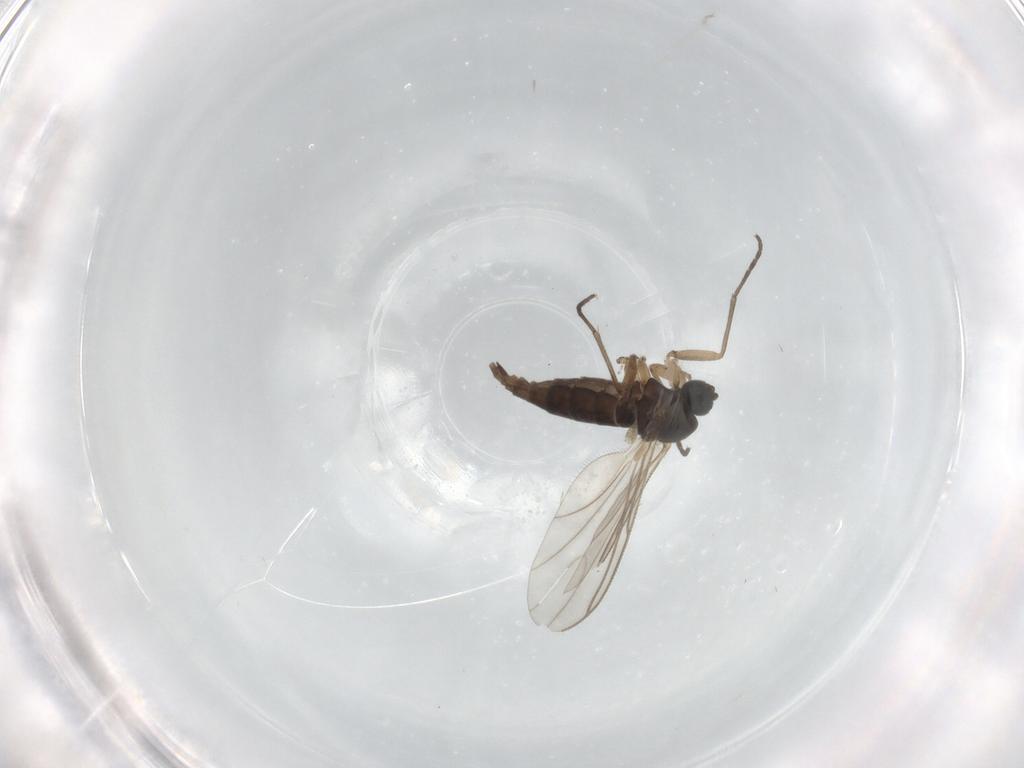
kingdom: Animalia
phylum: Arthropoda
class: Insecta
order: Diptera
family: Sciaridae
